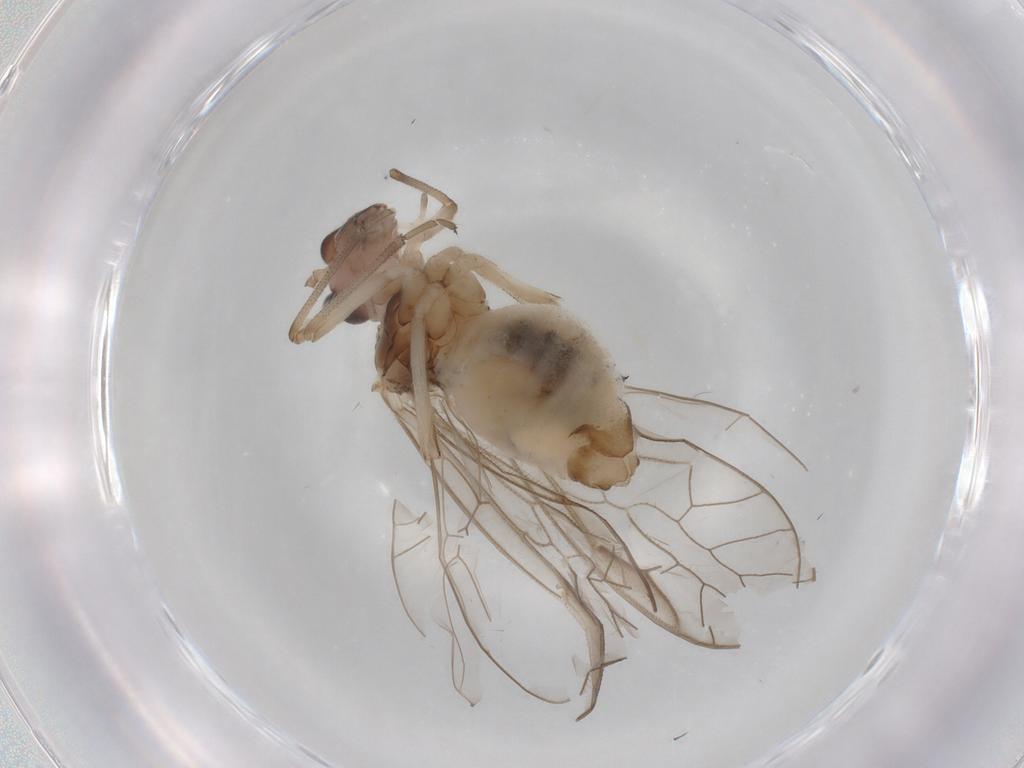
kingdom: Animalia
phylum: Arthropoda
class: Insecta
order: Psocodea
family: Stenopsocidae
